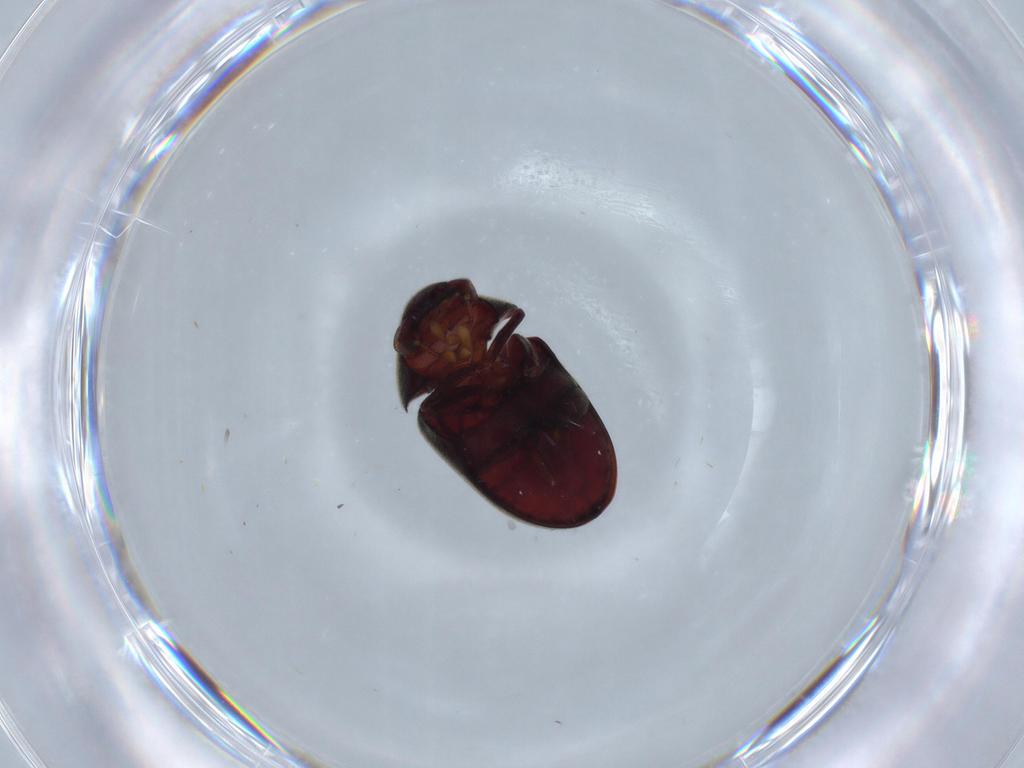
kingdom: Animalia
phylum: Arthropoda
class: Insecta
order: Coleoptera
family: Ptinidae
